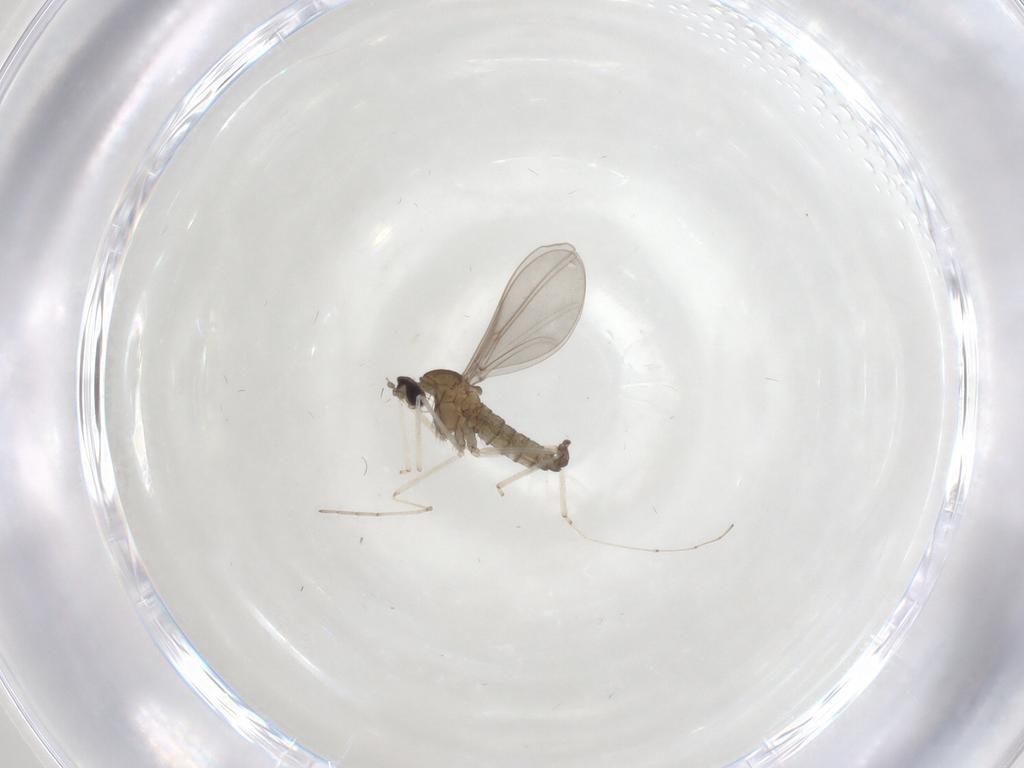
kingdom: Animalia
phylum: Arthropoda
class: Insecta
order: Diptera
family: Cecidomyiidae
